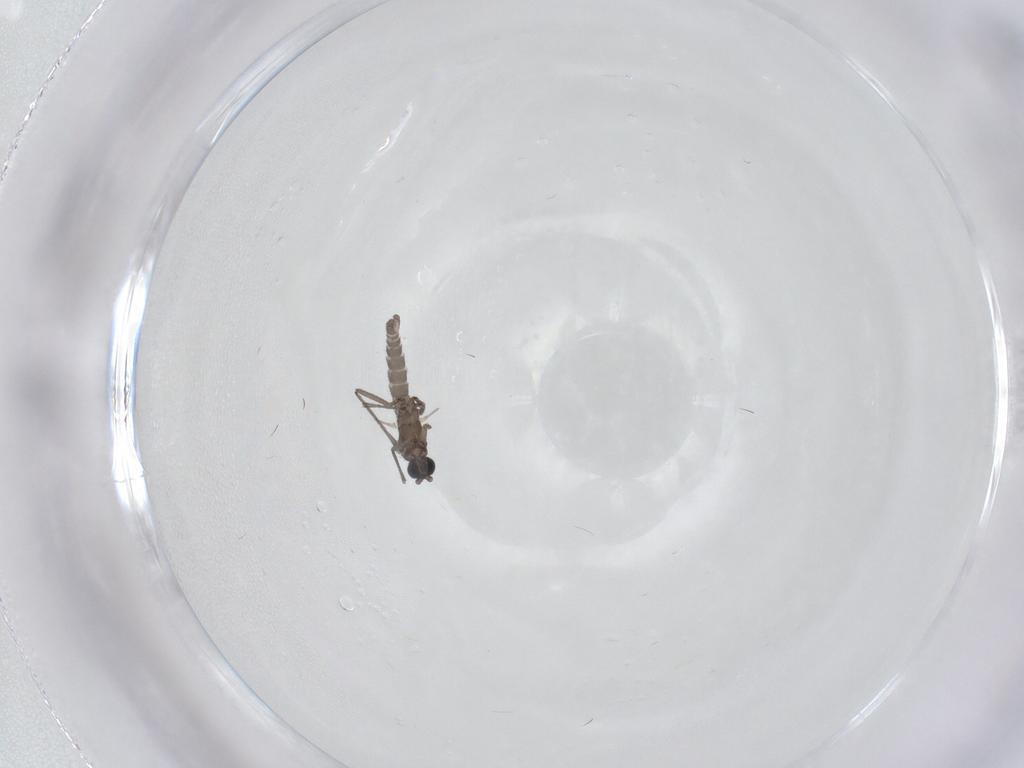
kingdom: Animalia
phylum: Arthropoda
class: Insecta
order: Diptera
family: Sciaridae
